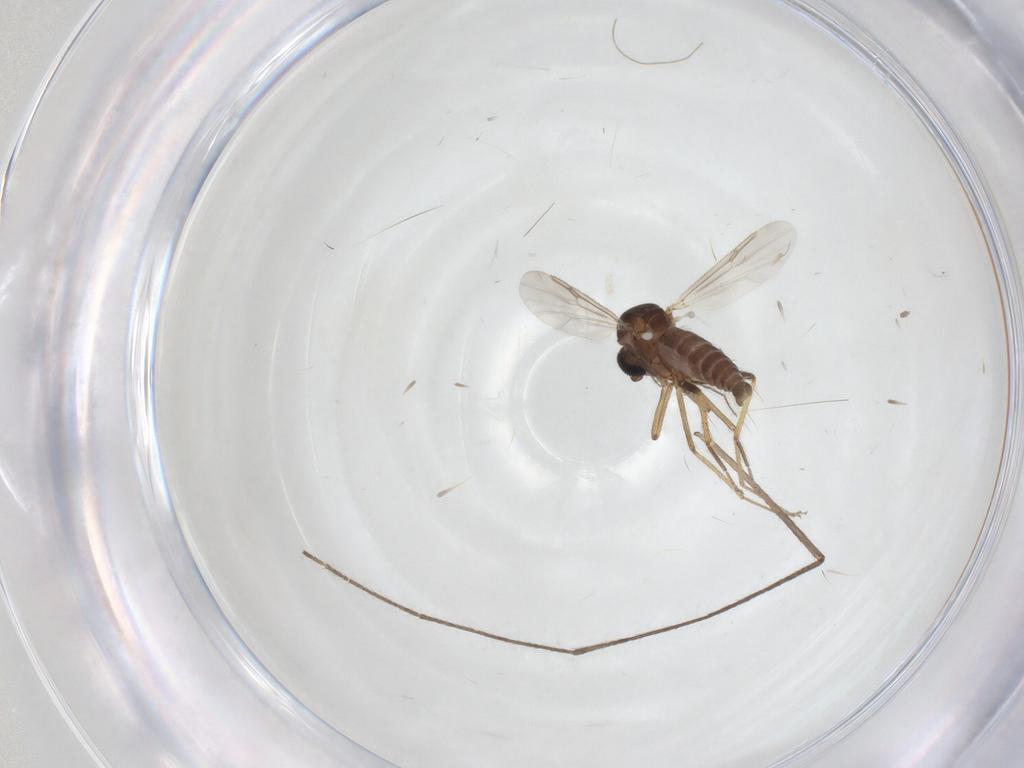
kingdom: Animalia
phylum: Arthropoda
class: Insecta
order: Diptera
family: Ceratopogonidae
